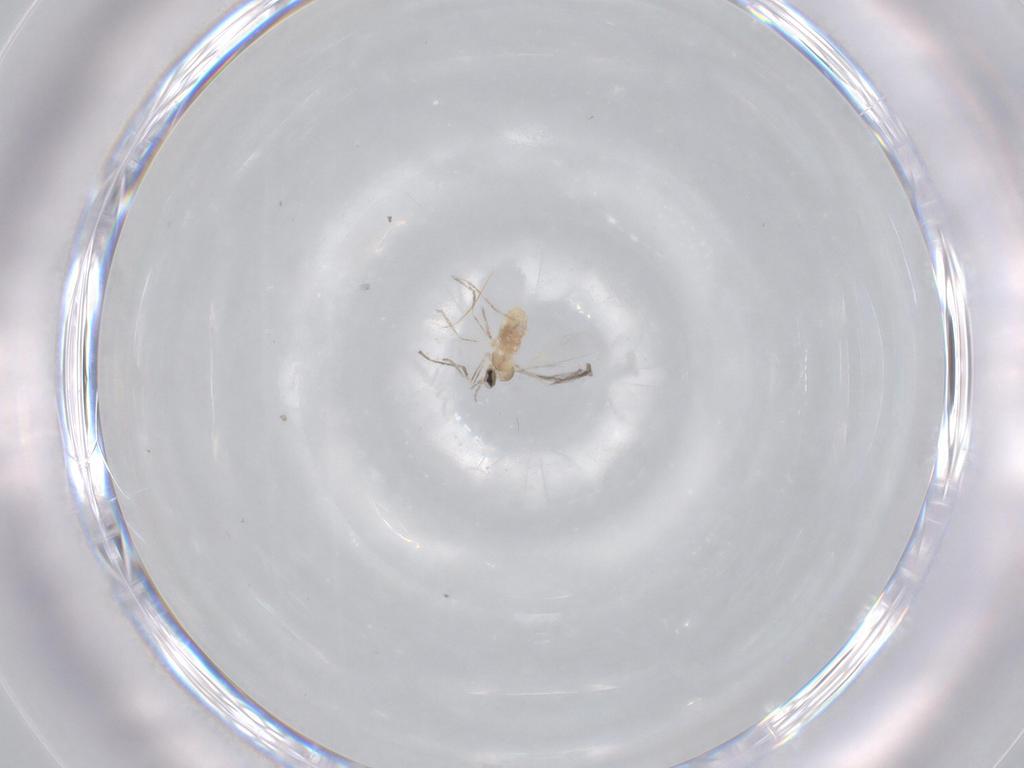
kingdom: Animalia
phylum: Arthropoda
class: Insecta
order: Diptera
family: Cecidomyiidae
